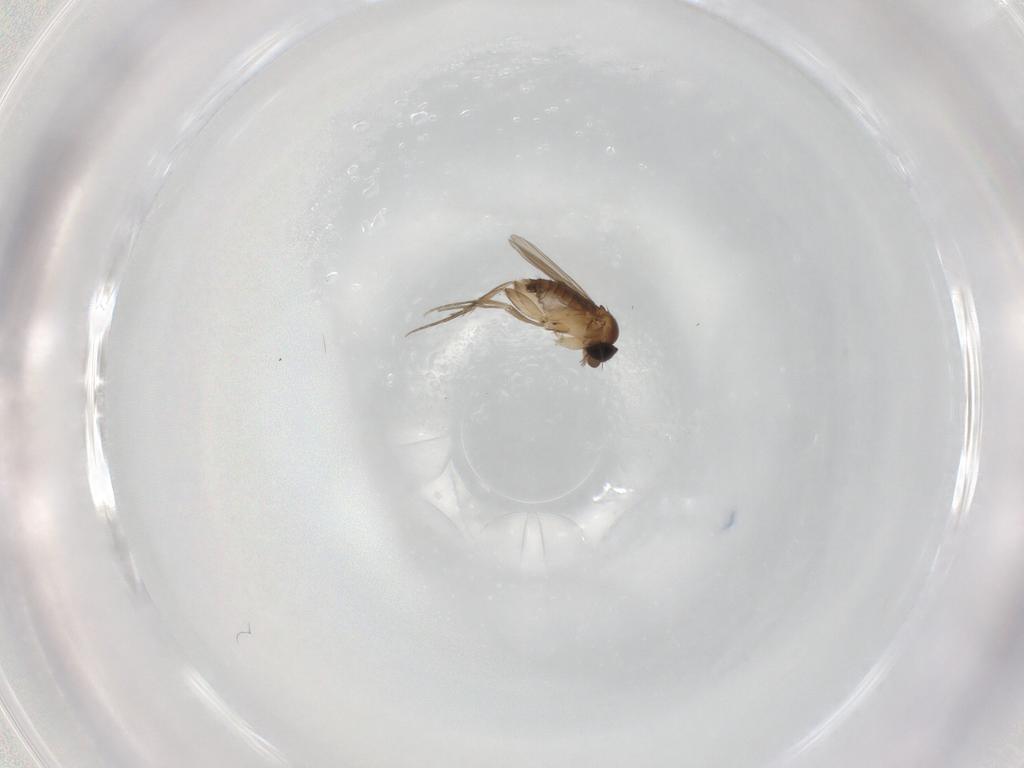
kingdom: Animalia
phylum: Arthropoda
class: Insecta
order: Diptera
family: Phoridae
